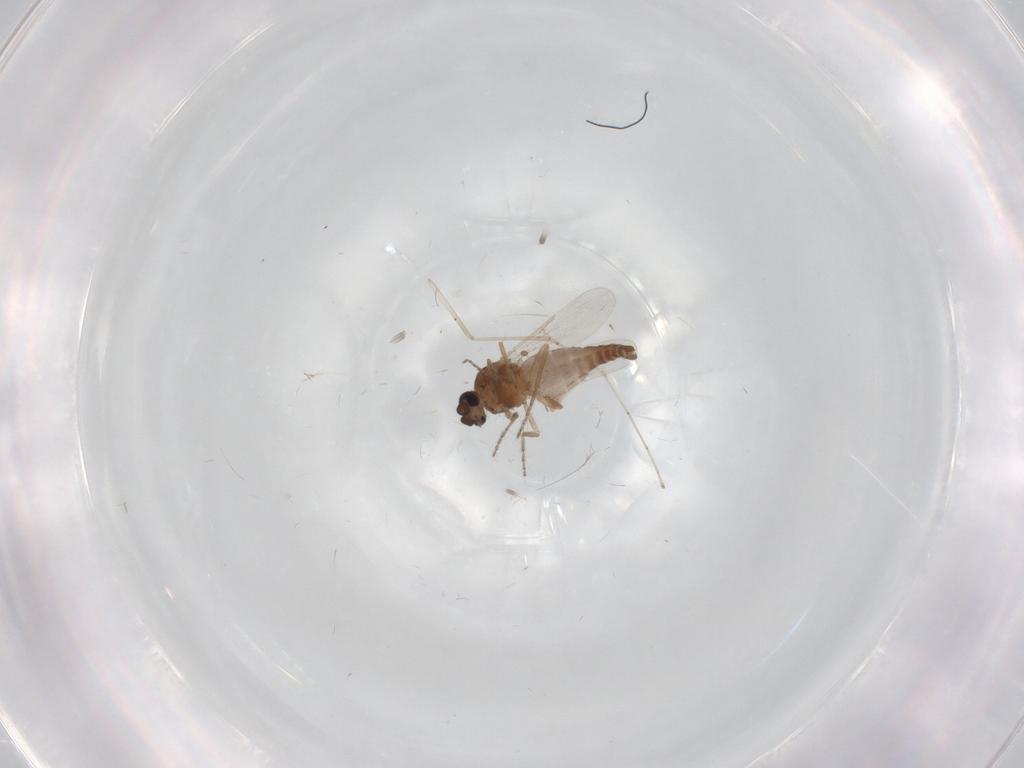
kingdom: Animalia
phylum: Arthropoda
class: Insecta
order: Diptera
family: Ceratopogonidae
